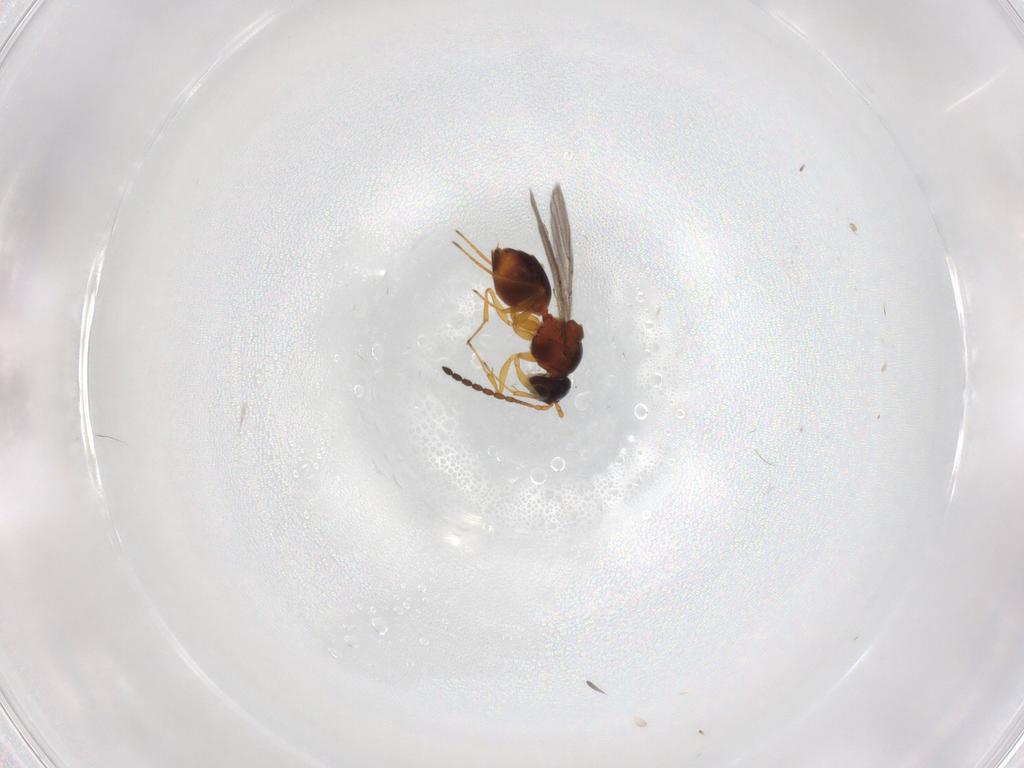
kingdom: Animalia
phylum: Arthropoda
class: Insecta
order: Hymenoptera
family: Figitidae
